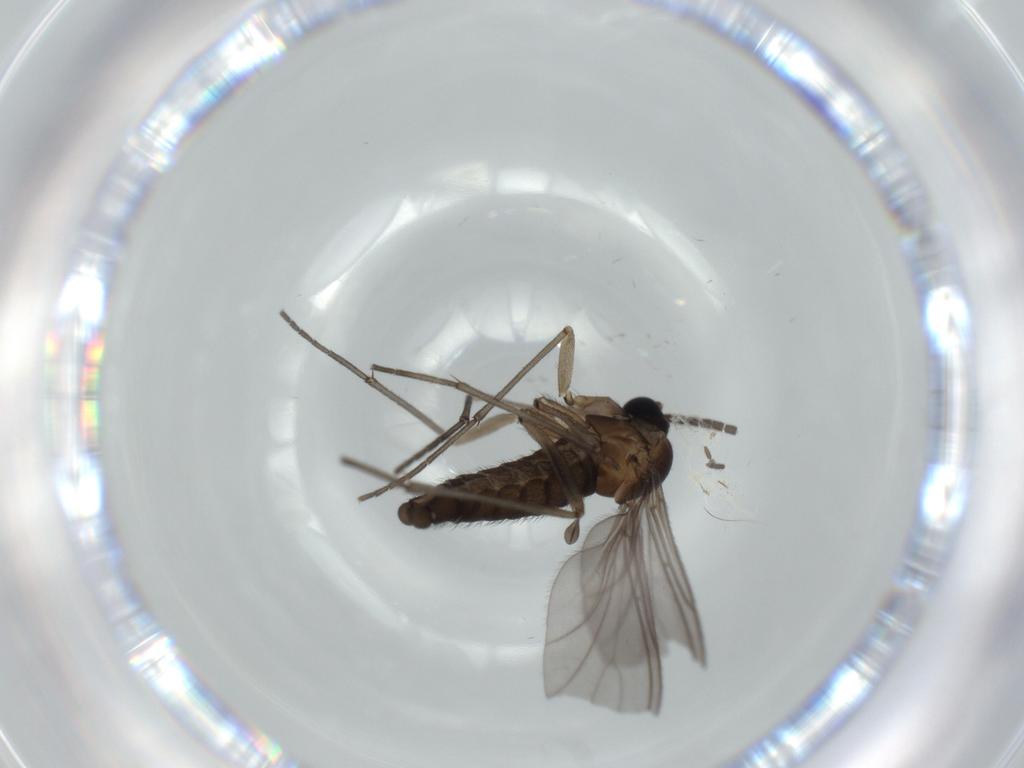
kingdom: Animalia
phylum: Arthropoda
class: Insecta
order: Diptera
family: Sciaridae
